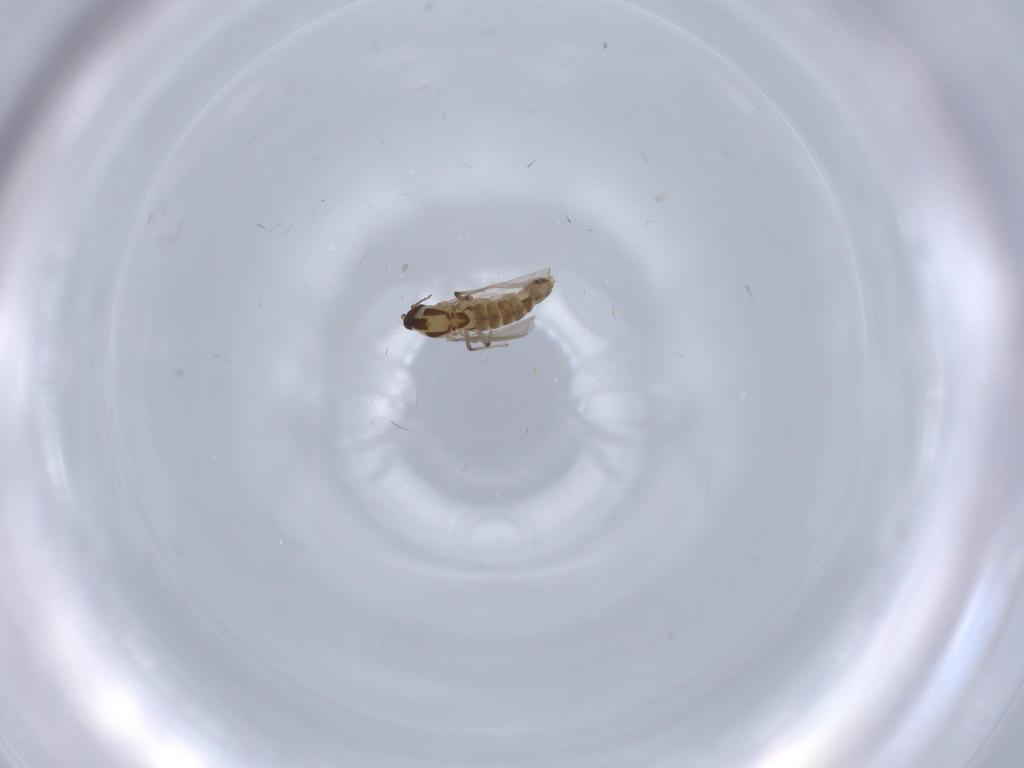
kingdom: Animalia
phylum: Arthropoda
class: Insecta
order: Diptera
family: Chironomidae
